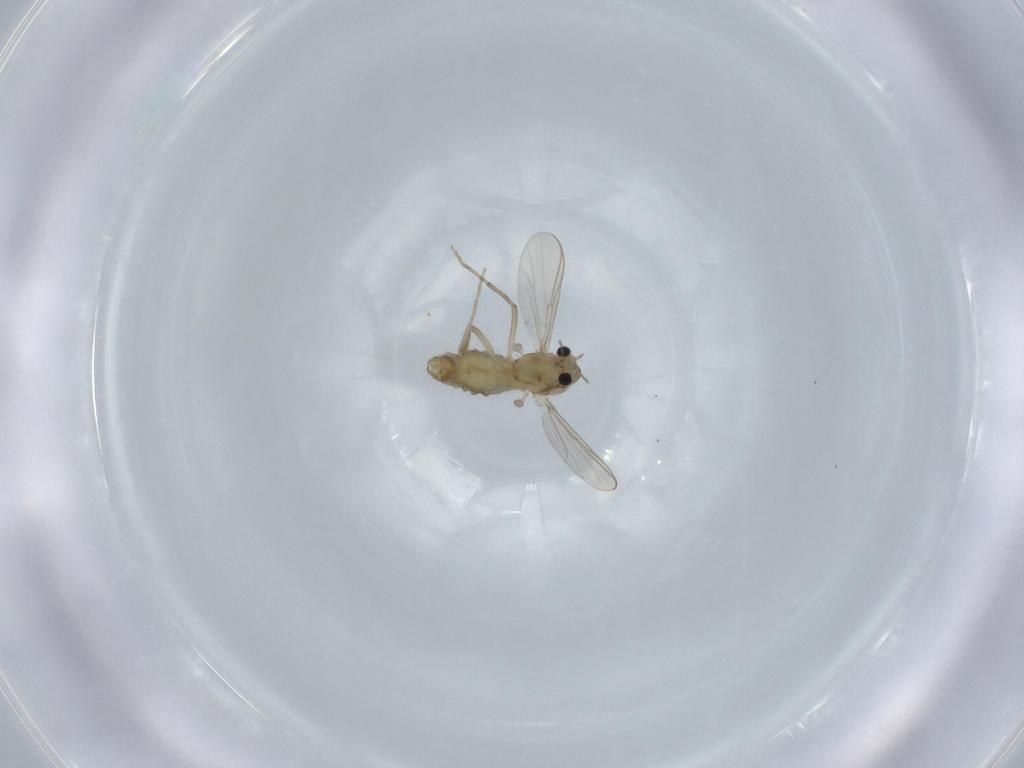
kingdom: Animalia
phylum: Arthropoda
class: Insecta
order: Diptera
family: Chironomidae
